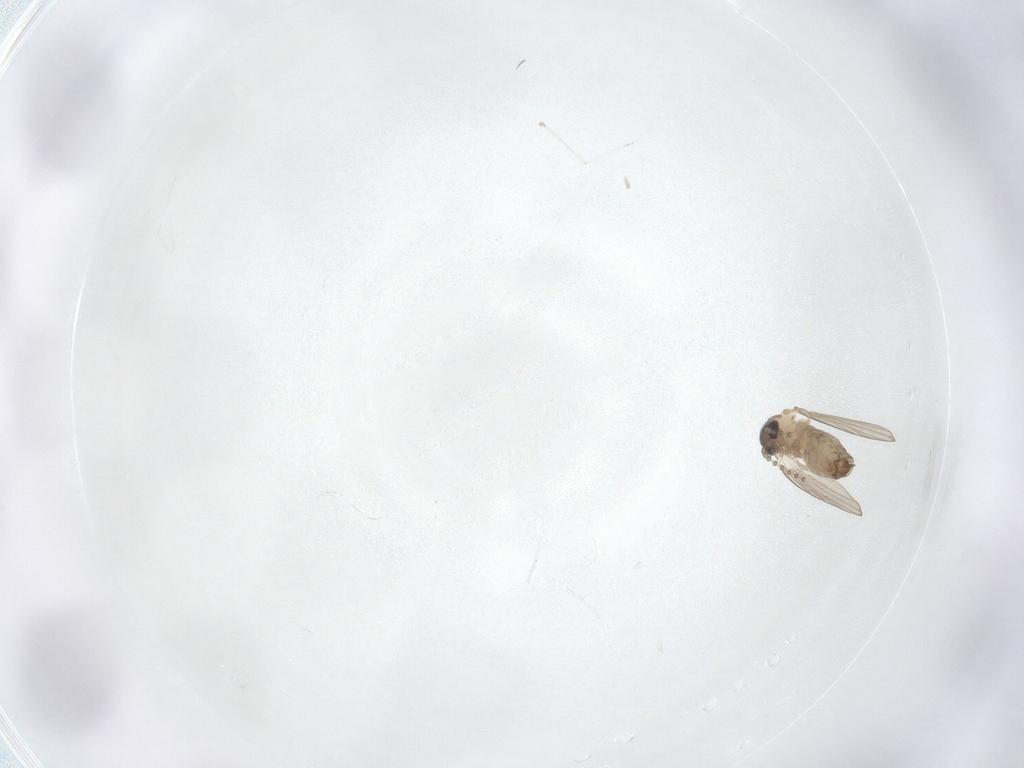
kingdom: Animalia
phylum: Arthropoda
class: Insecta
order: Diptera
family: Psychodidae
